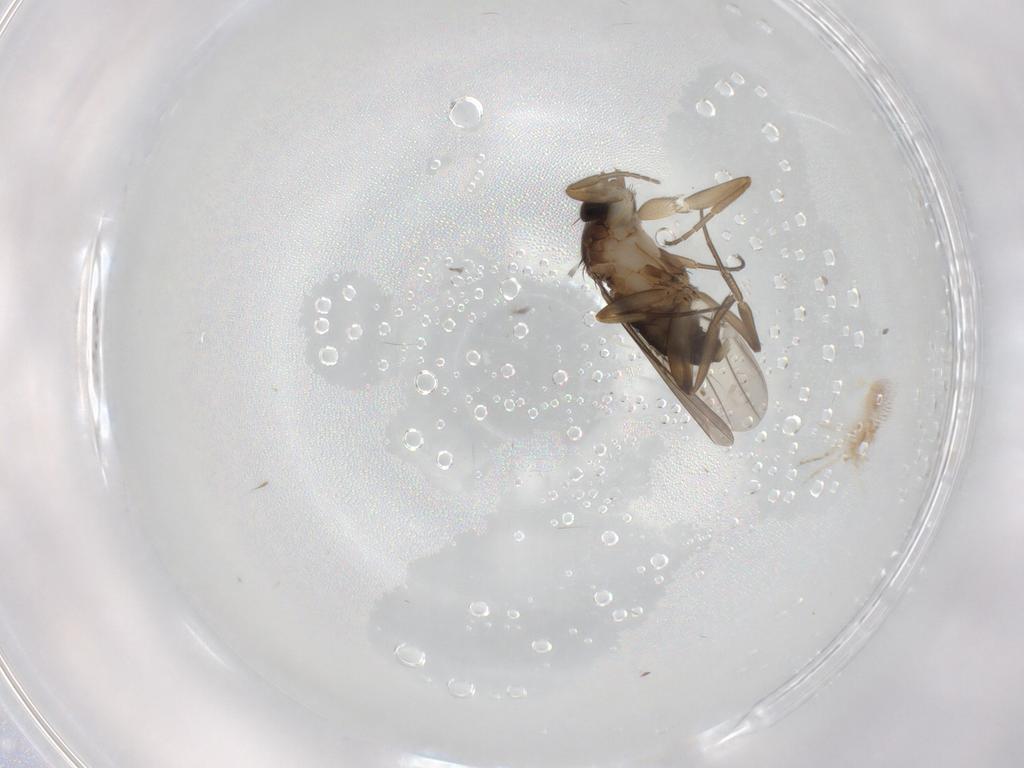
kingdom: Animalia
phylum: Arthropoda
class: Insecta
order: Diptera
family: Phoridae
